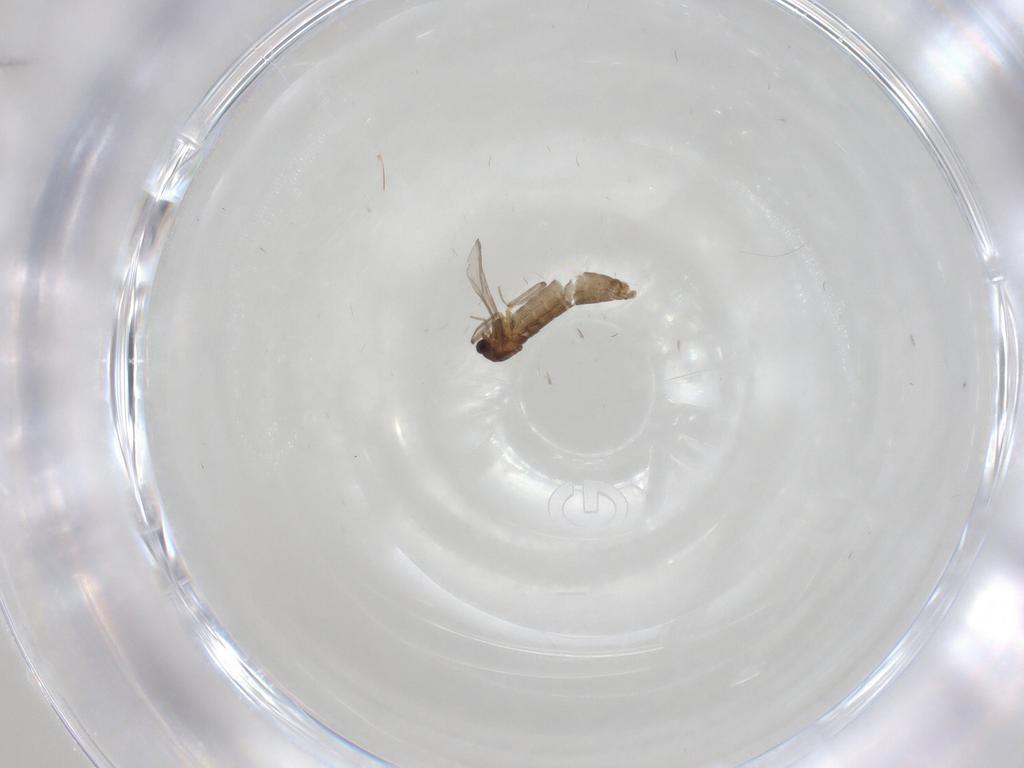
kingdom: Animalia
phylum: Arthropoda
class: Insecta
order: Diptera
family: Chironomidae
